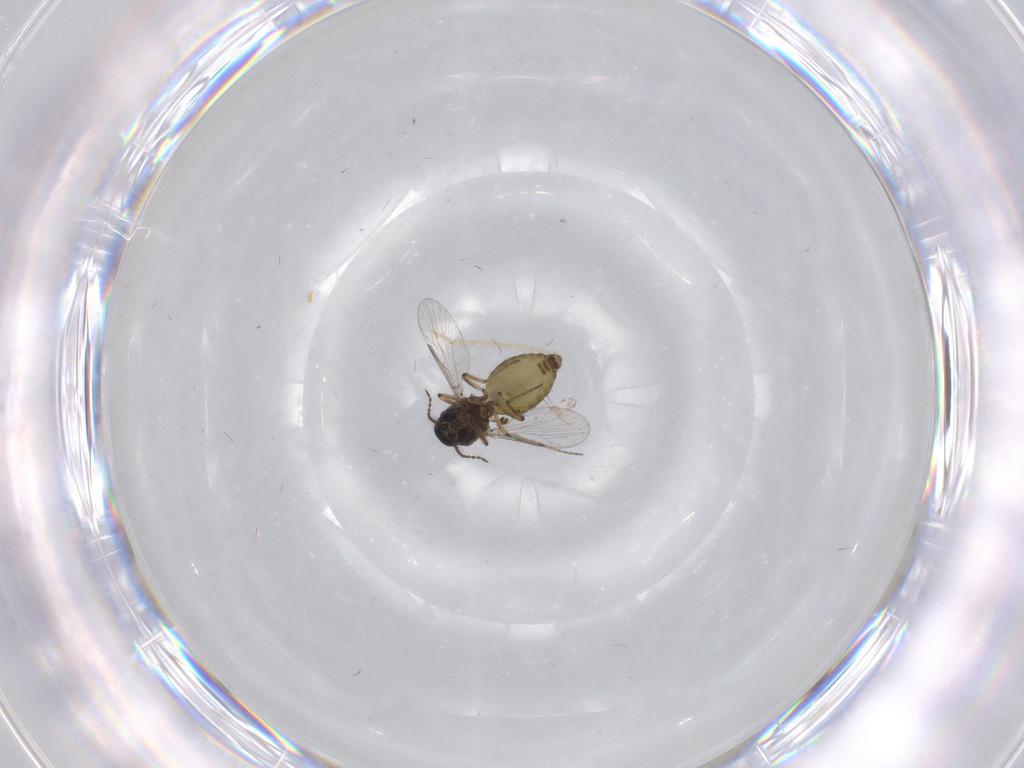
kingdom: Animalia
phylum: Arthropoda
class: Insecta
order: Diptera
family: Ceratopogonidae
